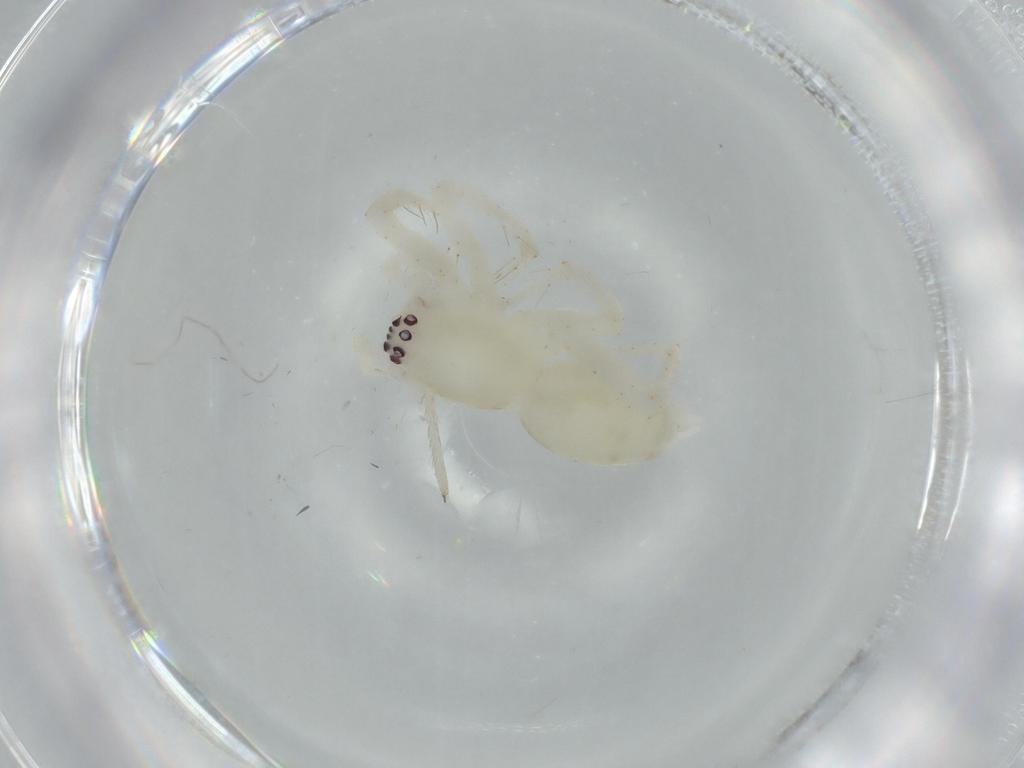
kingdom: Animalia
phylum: Arthropoda
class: Arachnida
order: Araneae
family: Anyphaenidae
